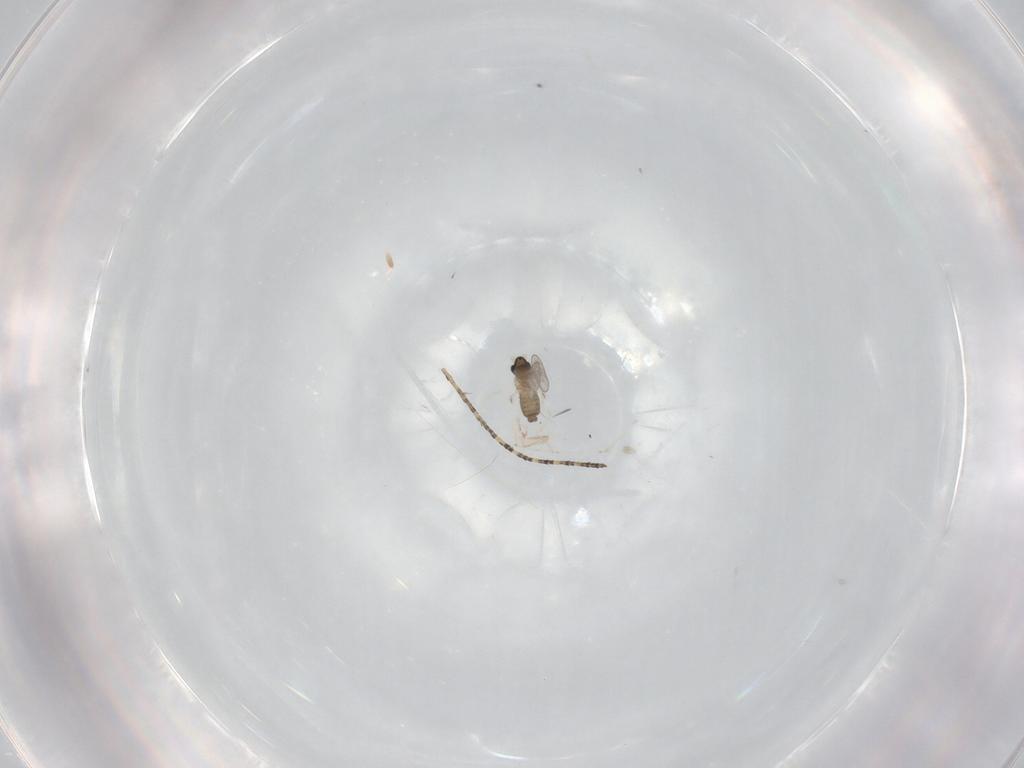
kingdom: Animalia
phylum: Arthropoda
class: Insecta
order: Diptera
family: Cecidomyiidae
